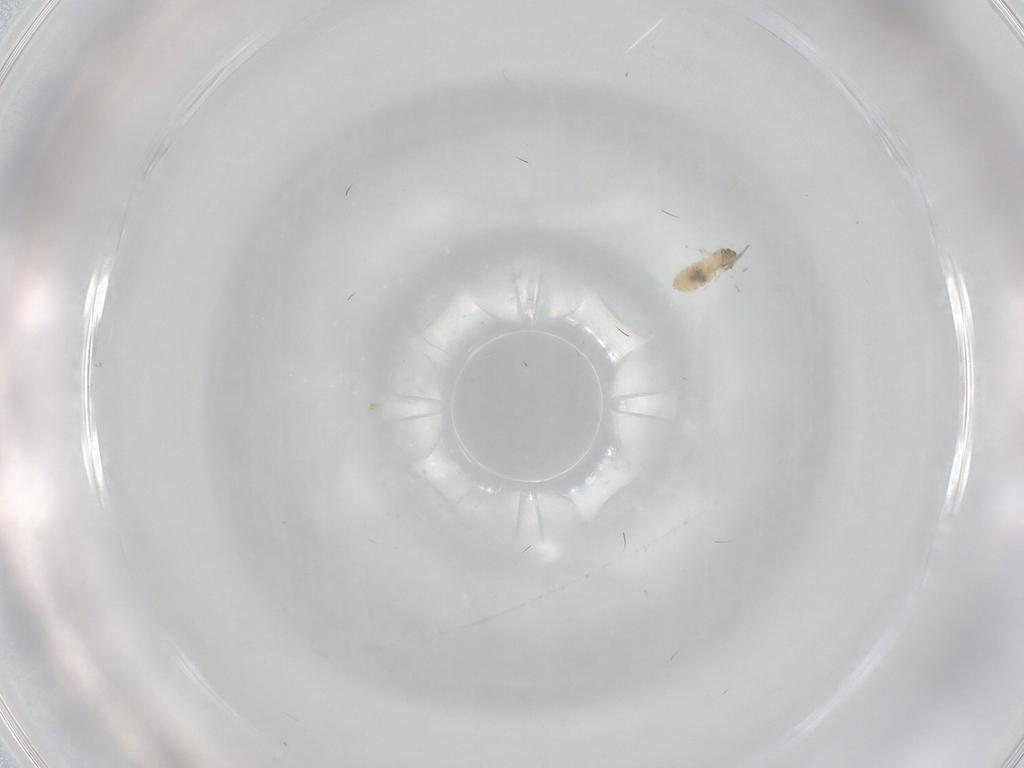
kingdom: Animalia
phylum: Arthropoda
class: Insecta
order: Diptera
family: Cecidomyiidae
